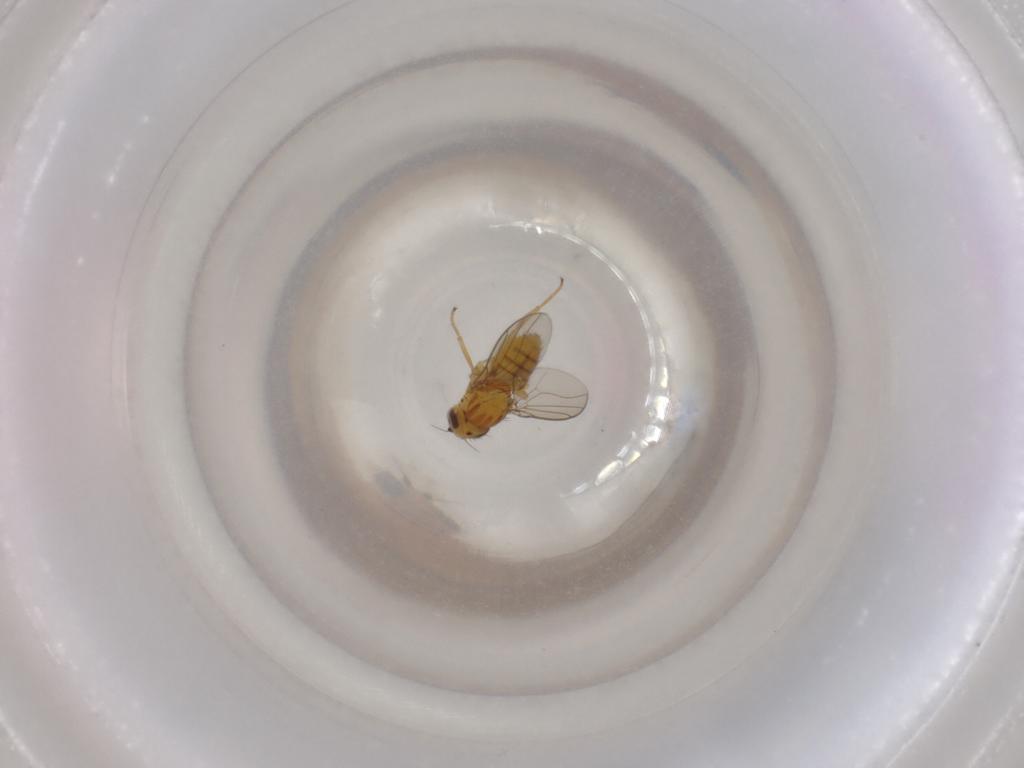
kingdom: Animalia
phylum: Arthropoda
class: Insecta
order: Diptera
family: Chloropidae
